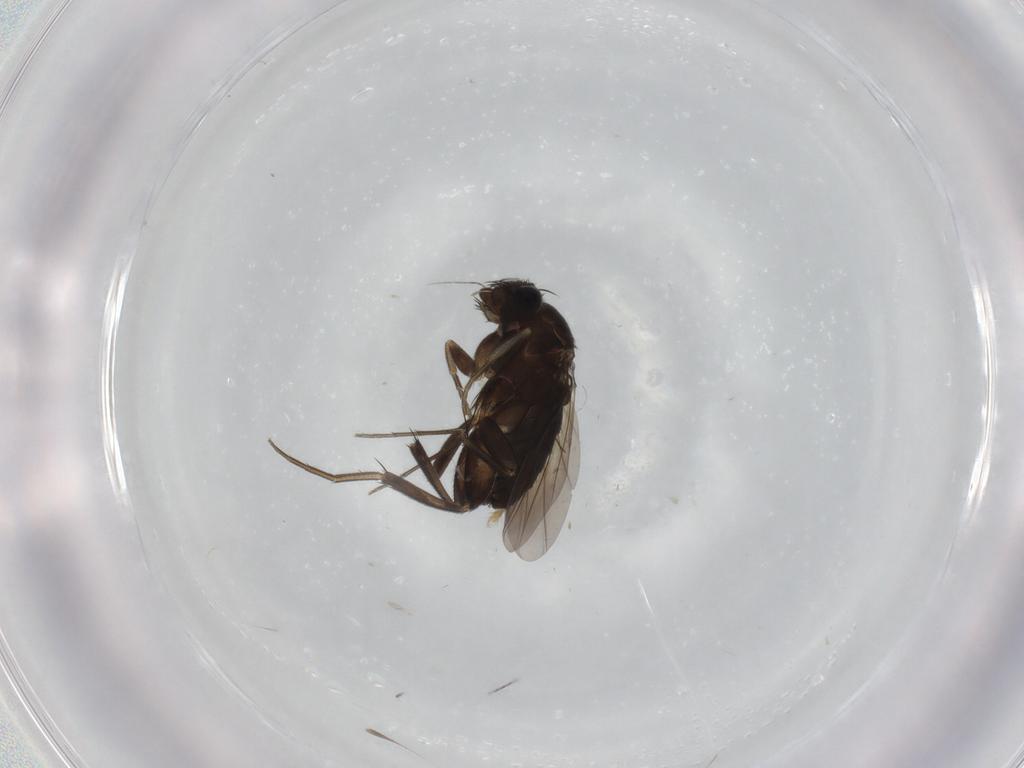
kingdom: Animalia
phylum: Arthropoda
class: Insecta
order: Diptera
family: Phoridae
